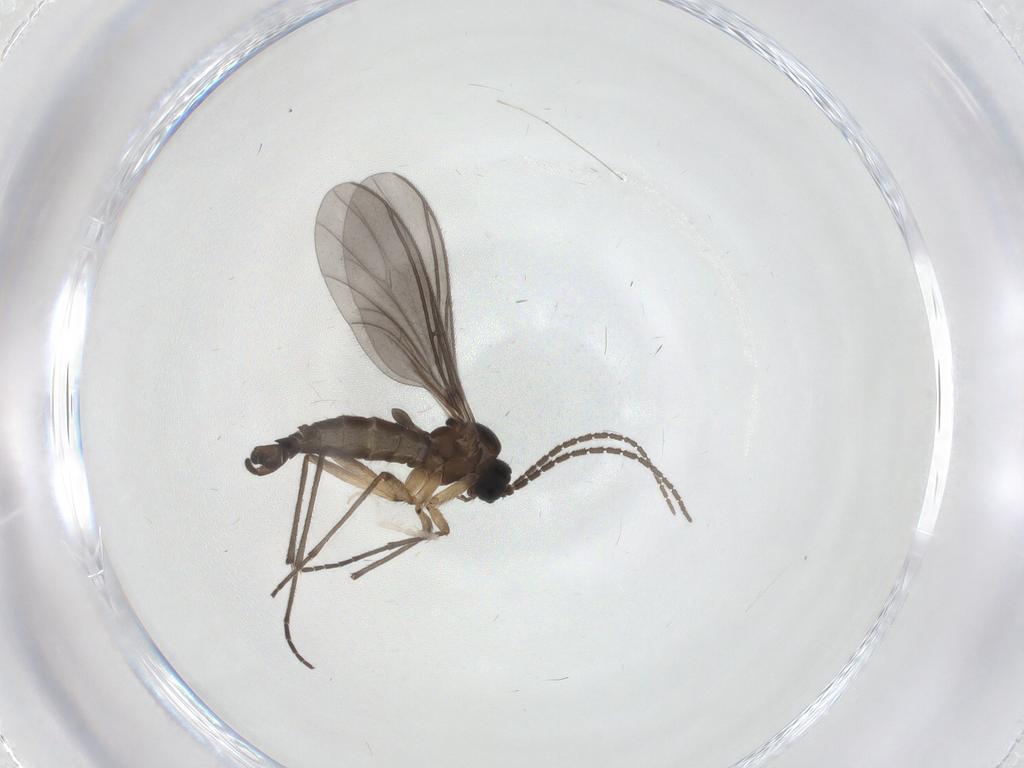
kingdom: Animalia
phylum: Arthropoda
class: Insecta
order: Diptera
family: Sciaridae
